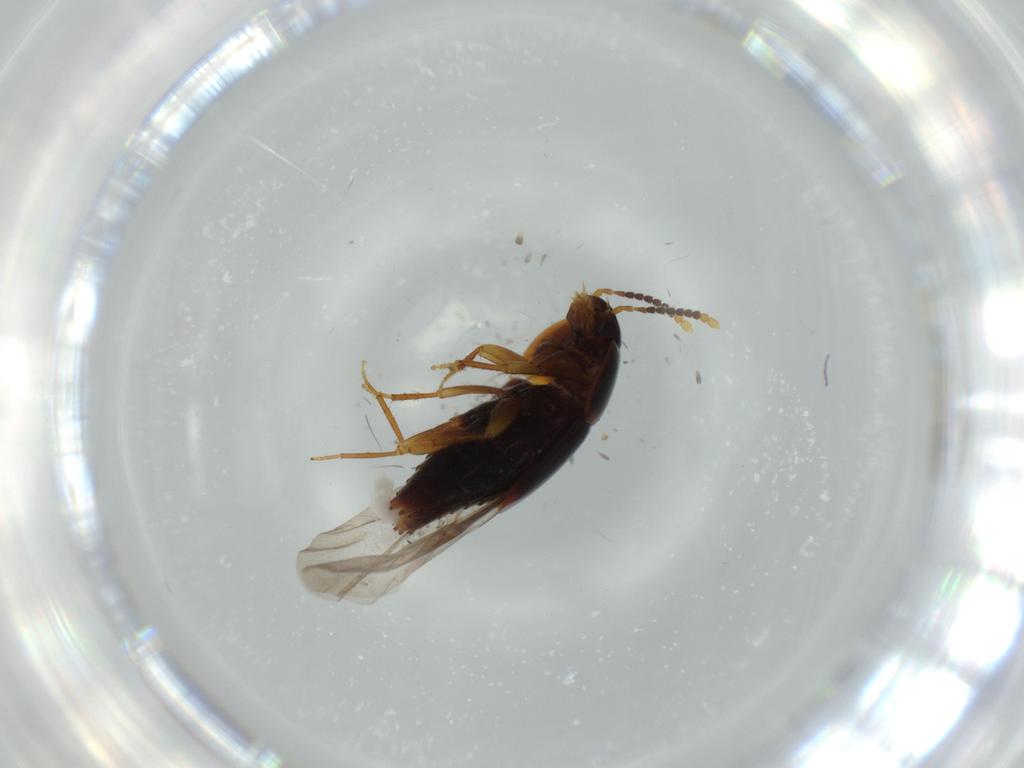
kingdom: Animalia
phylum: Arthropoda
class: Insecta
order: Coleoptera
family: Staphylinidae
